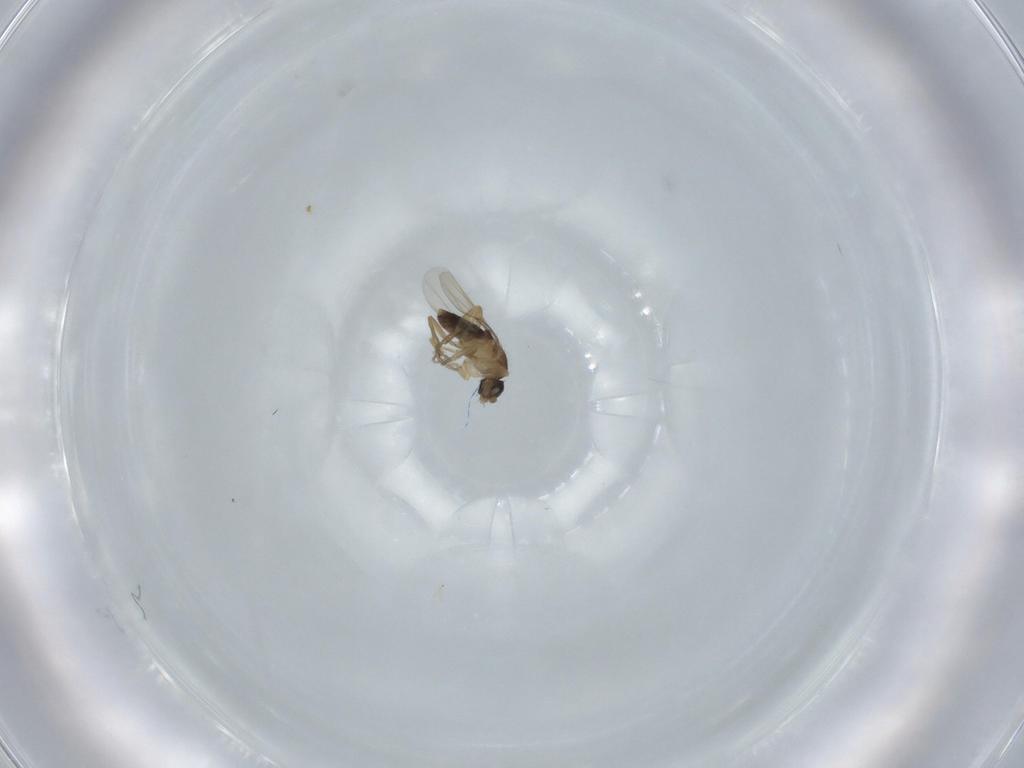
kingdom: Animalia
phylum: Arthropoda
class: Insecta
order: Diptera
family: Phoridae
